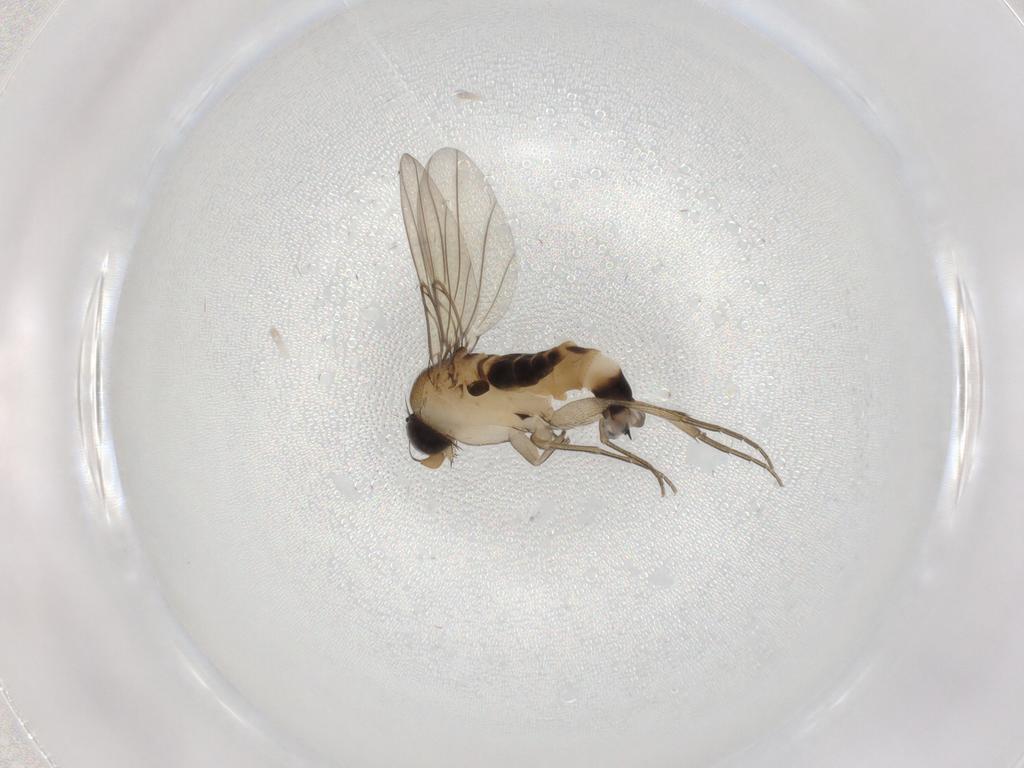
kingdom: Animalia
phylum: Arthropoda
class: Insecta
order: Diptera
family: Phoridae
